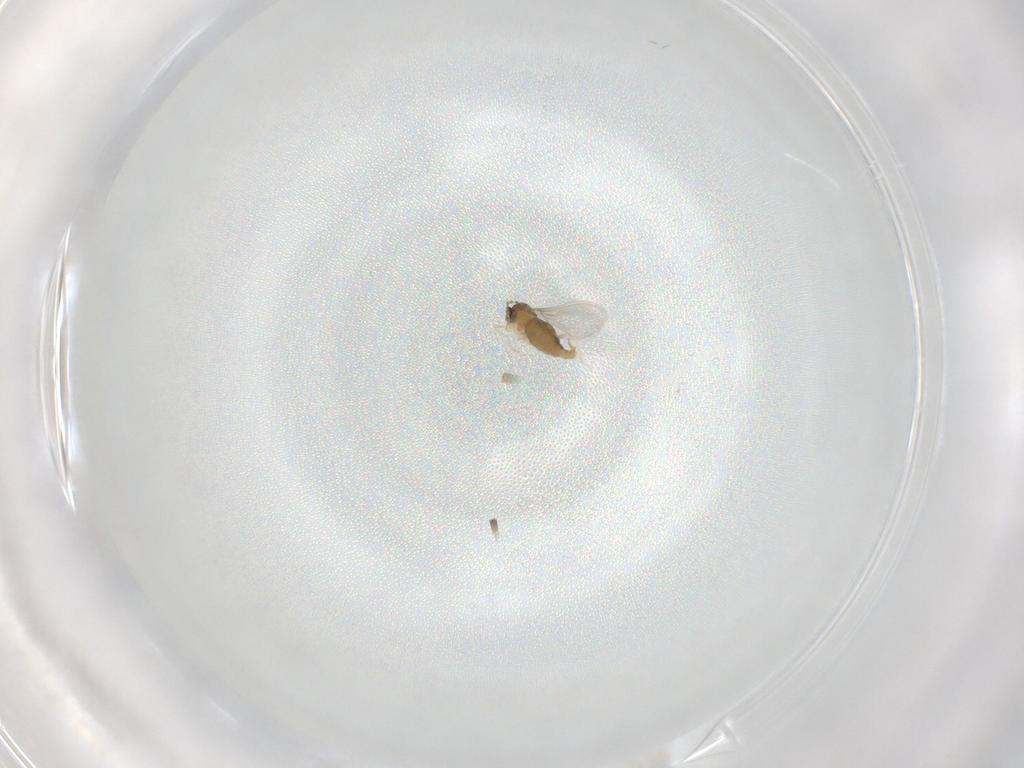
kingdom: Animalia
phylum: Arthropoda
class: Insecta
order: Diptera
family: Cecidomyiidae
